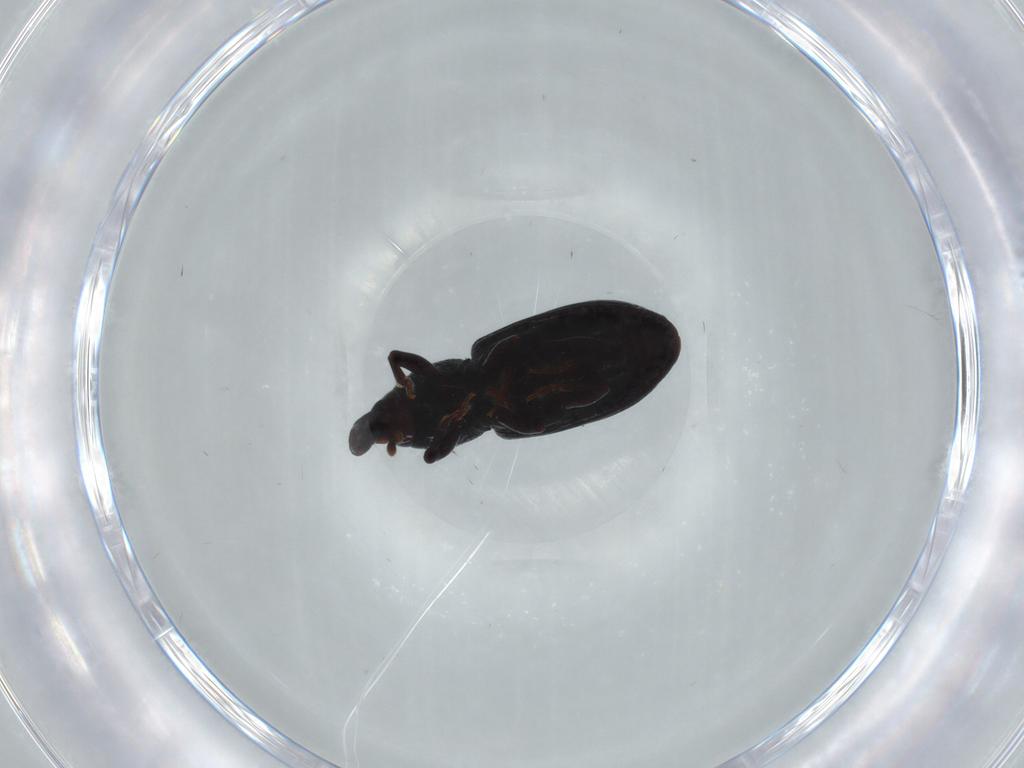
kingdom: Animalia
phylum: Arthropoda
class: Insecta
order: Coleoptera
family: Curculionidae
